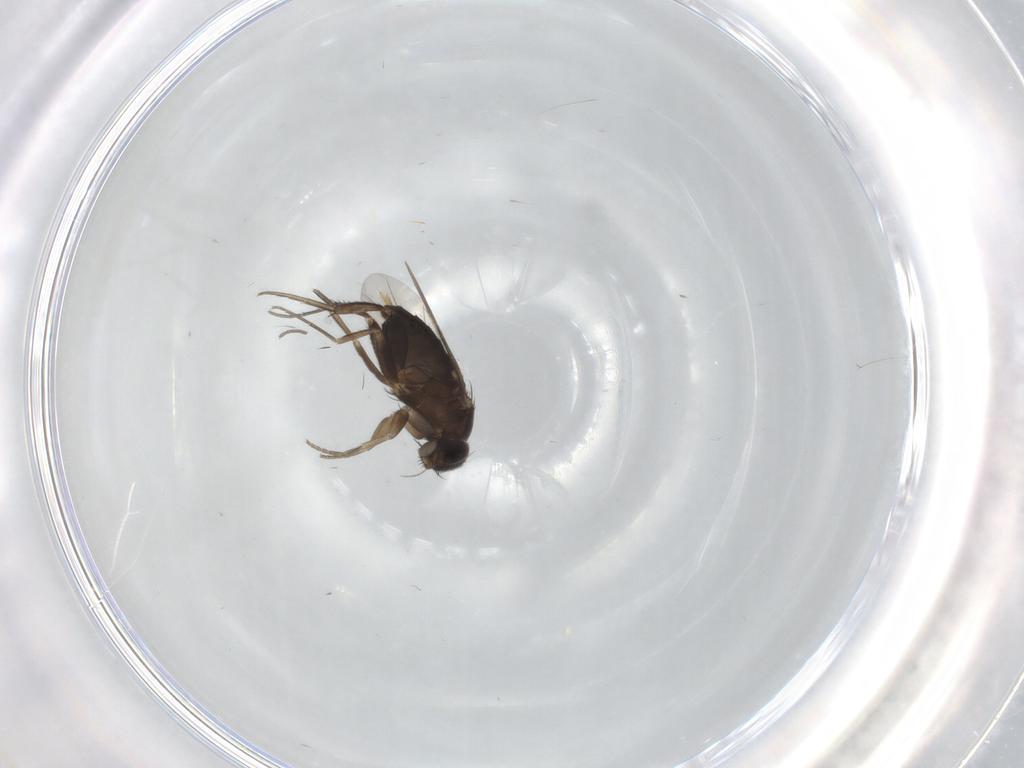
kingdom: Animalia
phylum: Arthropoda
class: Insecta
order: Diptera
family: Phoridae
